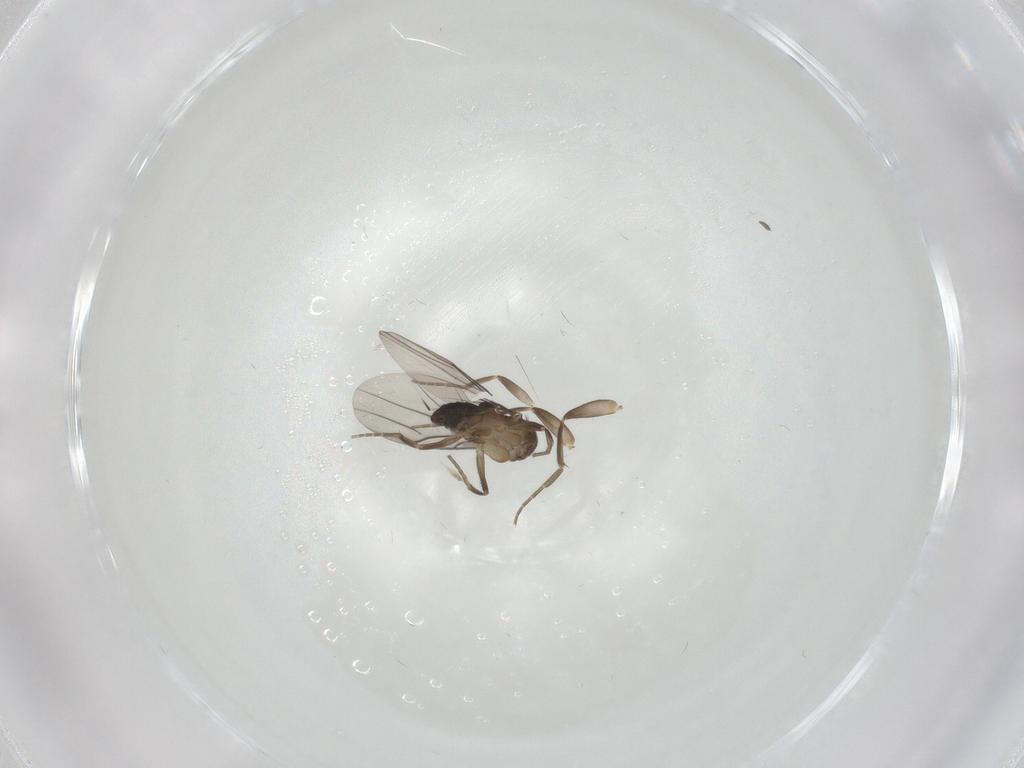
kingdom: Animalia
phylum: Arthropoda
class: Insecta
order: Diptera
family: Phoridae
